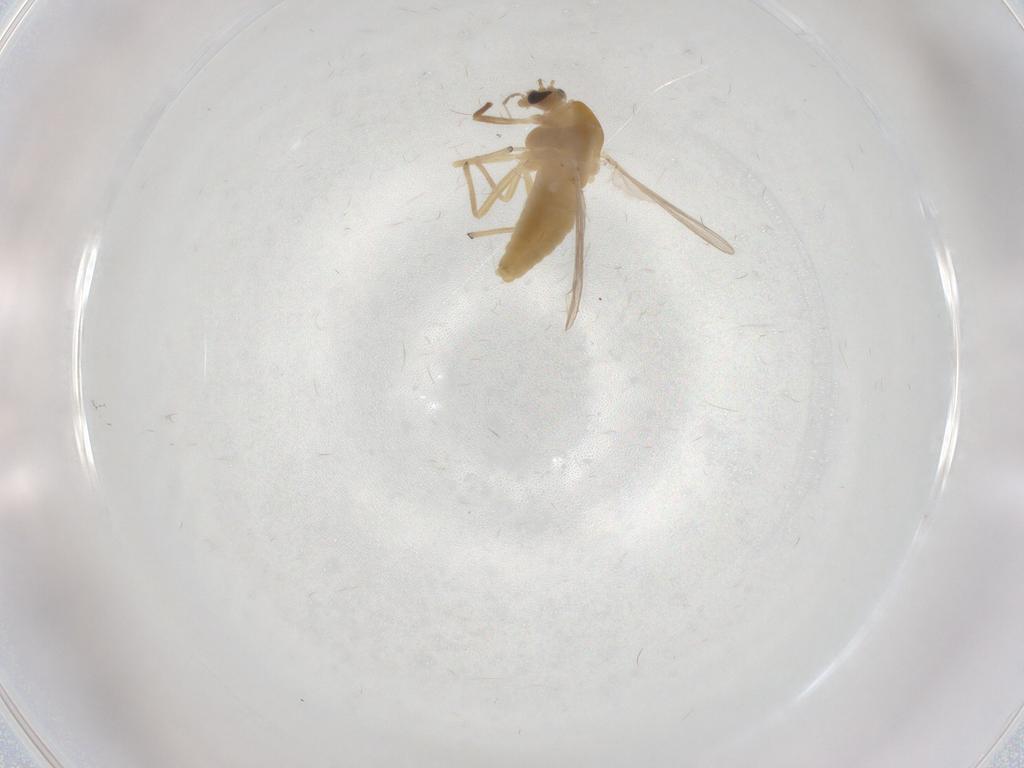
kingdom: Animalia
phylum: Arthropoda
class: Insecta
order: Diptera
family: Chironomidae
